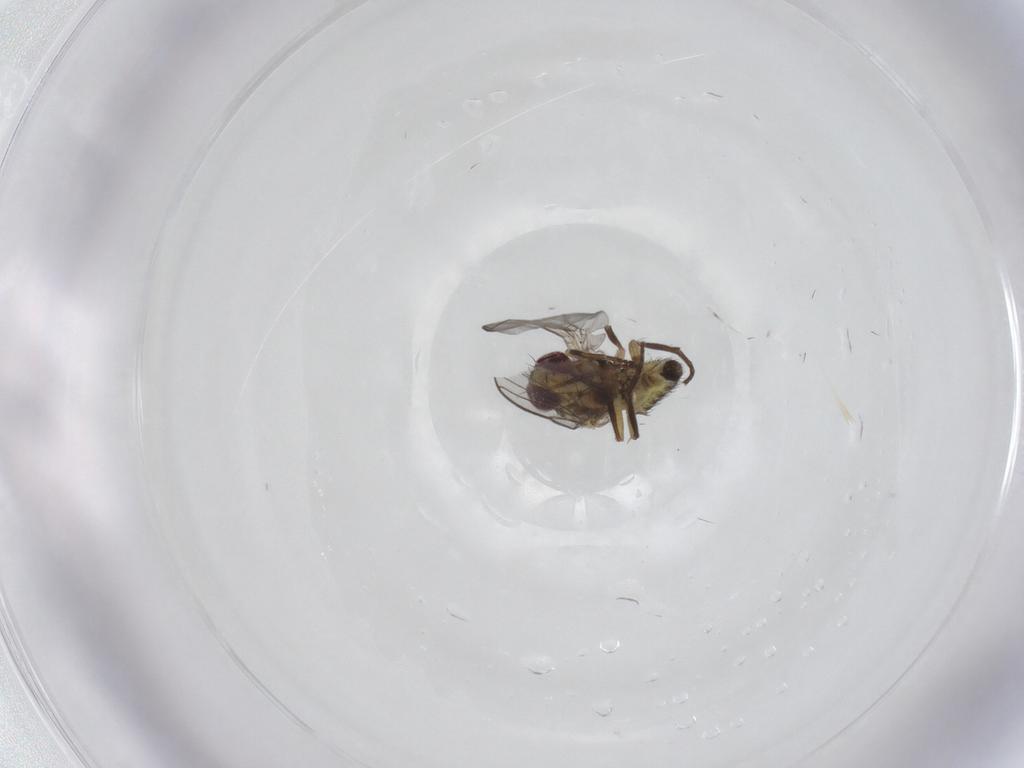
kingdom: Animalia
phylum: Arthropoda
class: Insecta
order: Diptera
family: Agromyzidae
